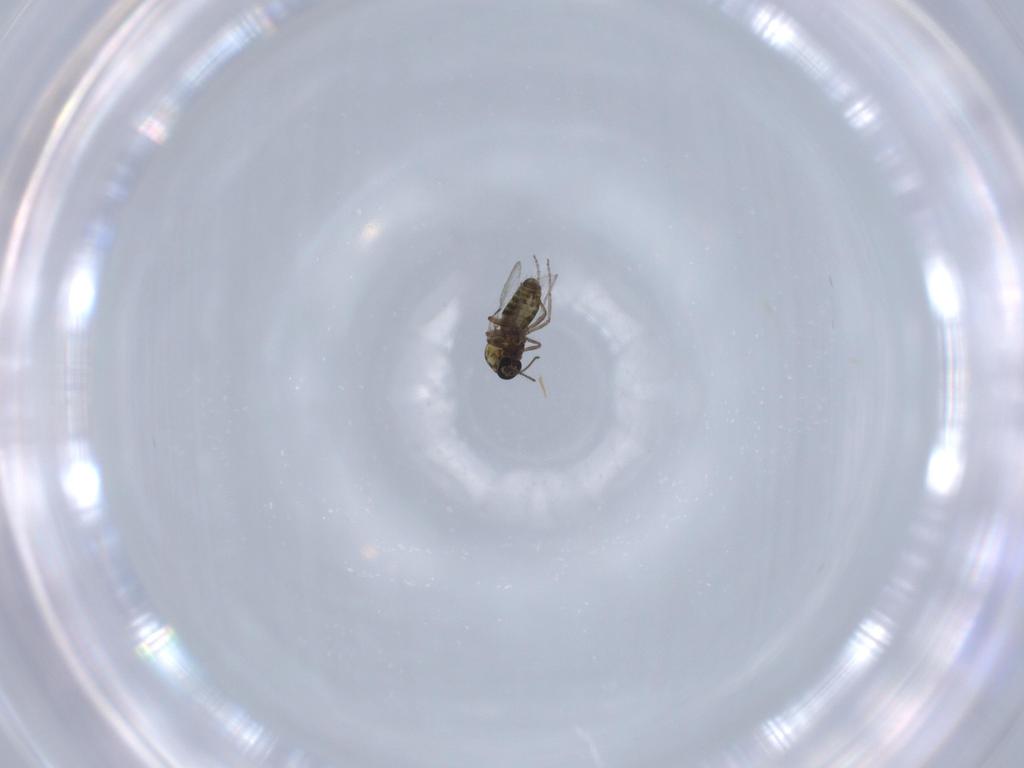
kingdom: Animalia
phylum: Arthropoda
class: Insecta
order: Diptera
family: Ceratopogonidae
